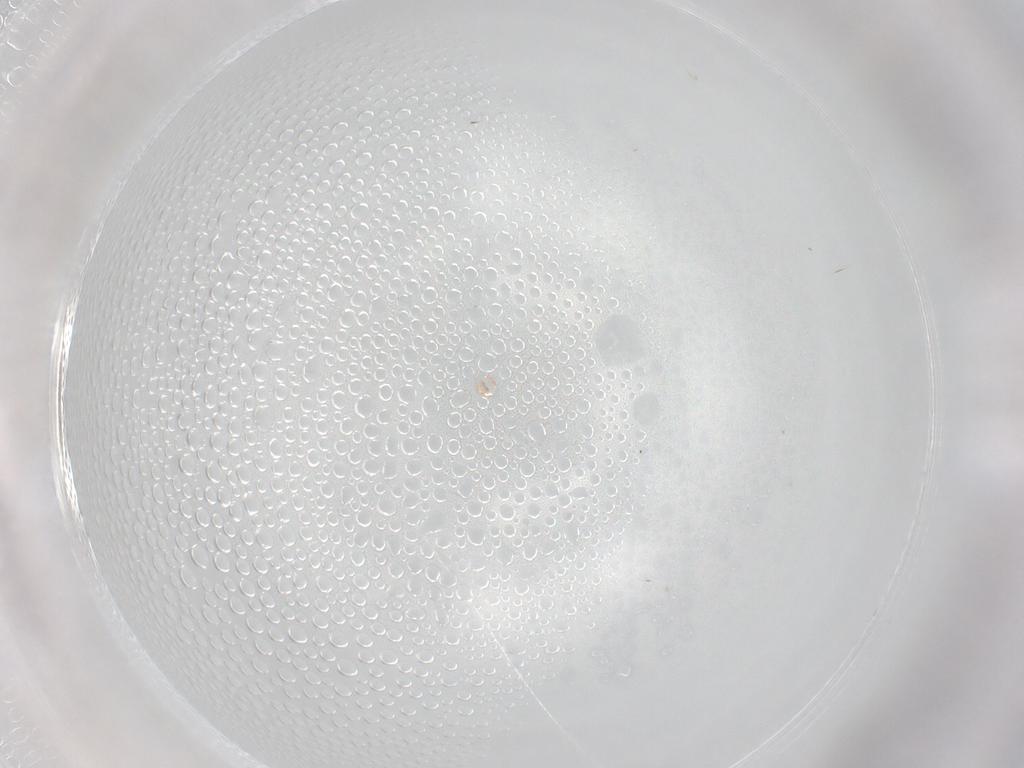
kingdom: Animalia
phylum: Arthropoda
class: Insecta
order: Diptera
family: Cecidomyiidae
